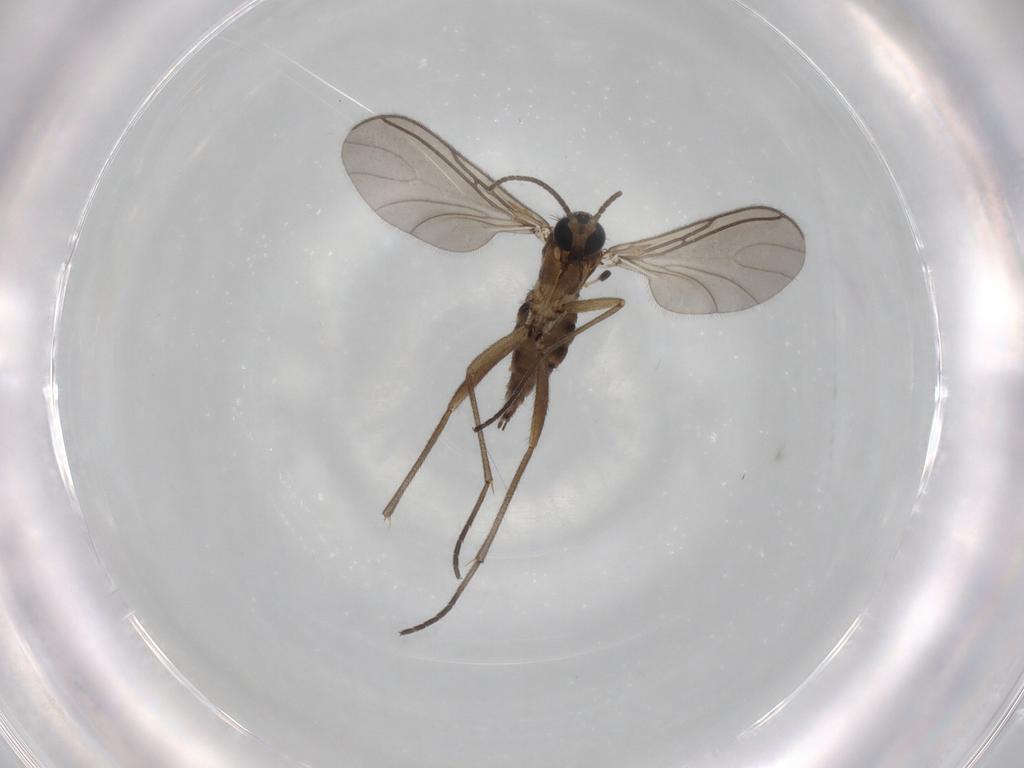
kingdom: Animalia
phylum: Arthropoda
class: Insecta
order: Diptera
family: Sciaridae
